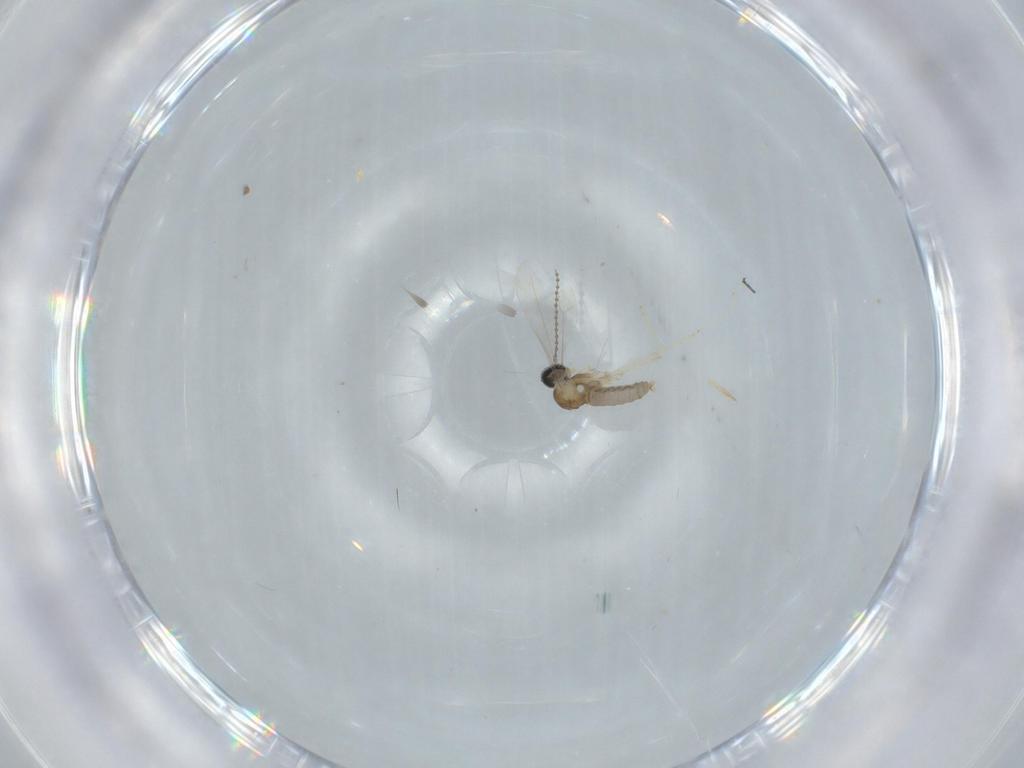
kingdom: Animalia
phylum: Arthropoda
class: Insecta
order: Diptera
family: Cecidomyiidae
